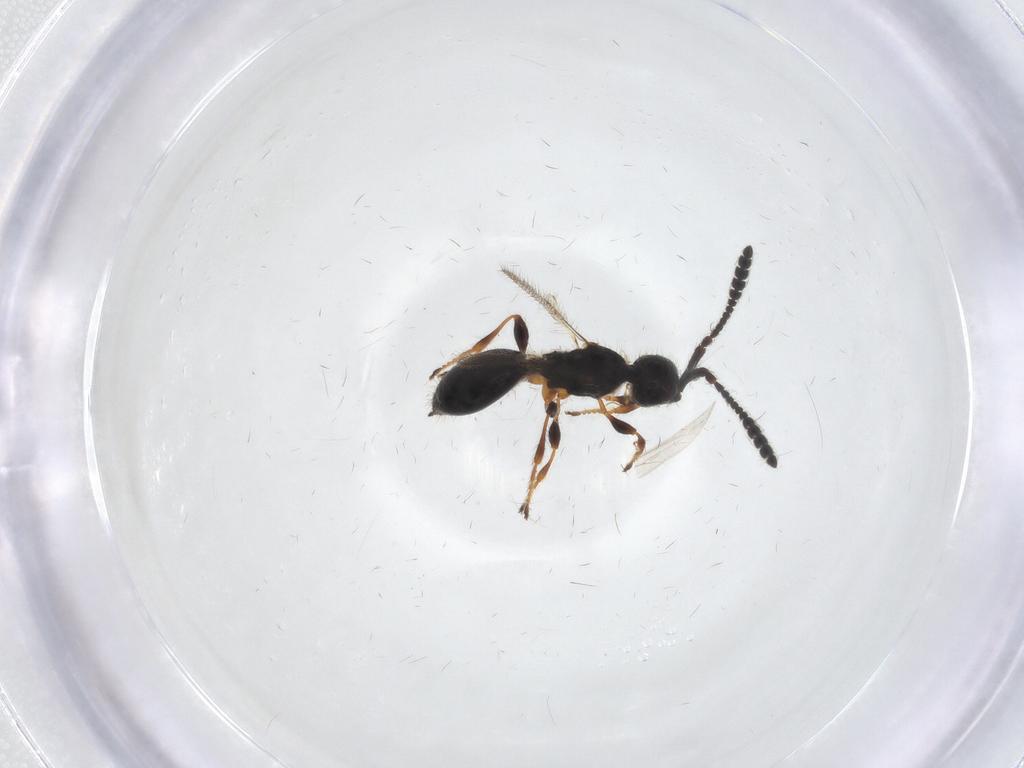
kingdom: Animalia
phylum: Arthropoda
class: Insecta
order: Hymenoptera
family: Diapriidae
